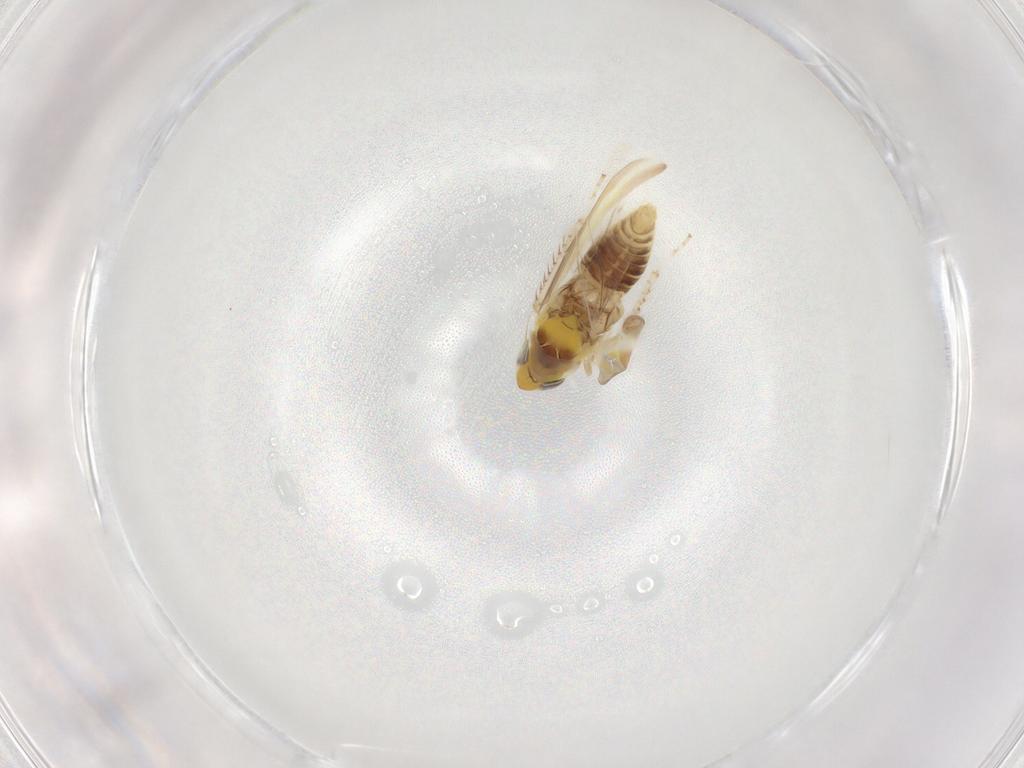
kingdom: Animalia
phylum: Arthropoda
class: Insecta
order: Hemiptera
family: Cicadellidae
